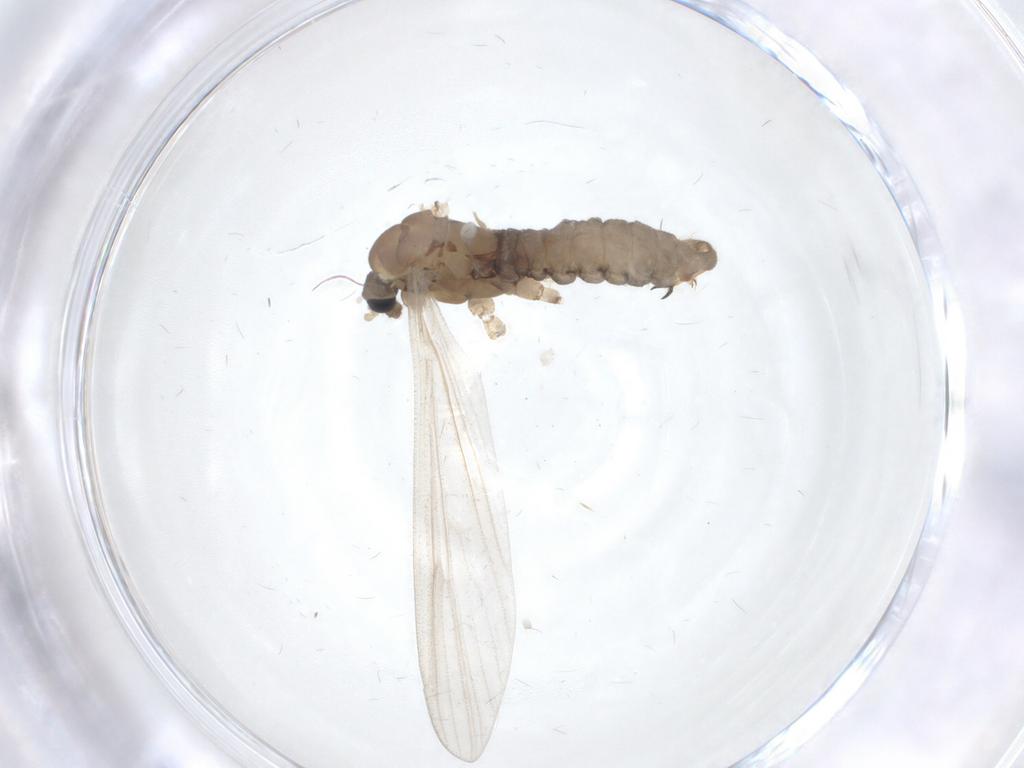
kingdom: Animalia
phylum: Arthropoda
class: Insecta
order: Diptera
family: Limoniidae
